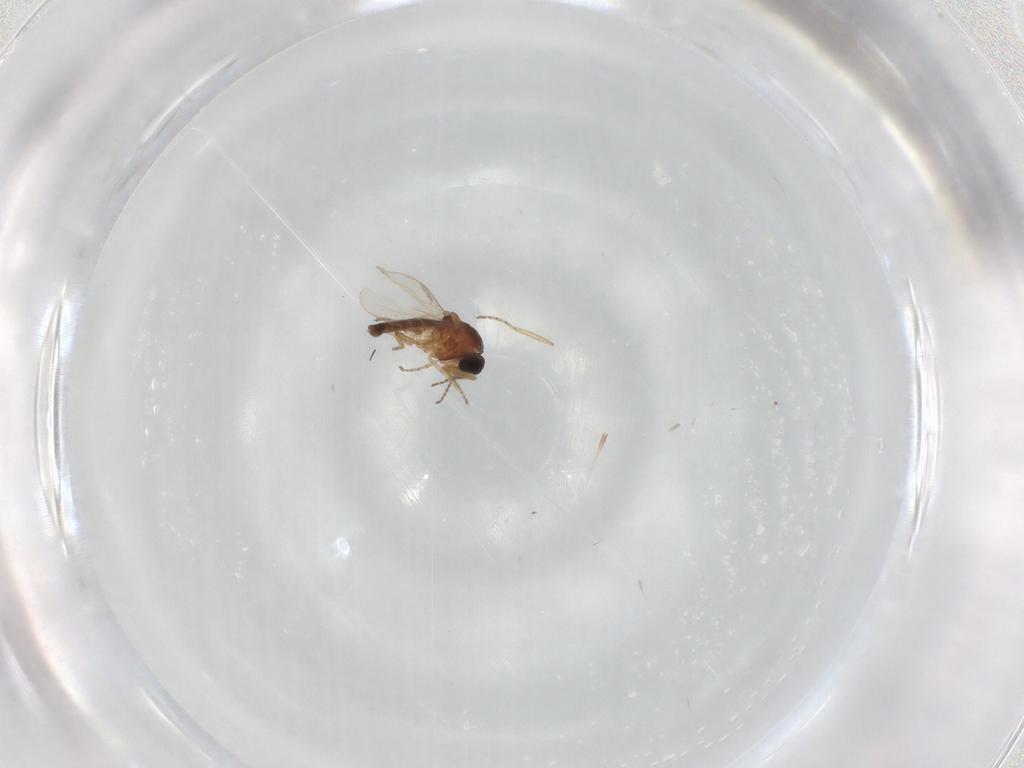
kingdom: Animalia
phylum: Arthropoda
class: Insecta
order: Diptera
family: Ceratopogonidae
